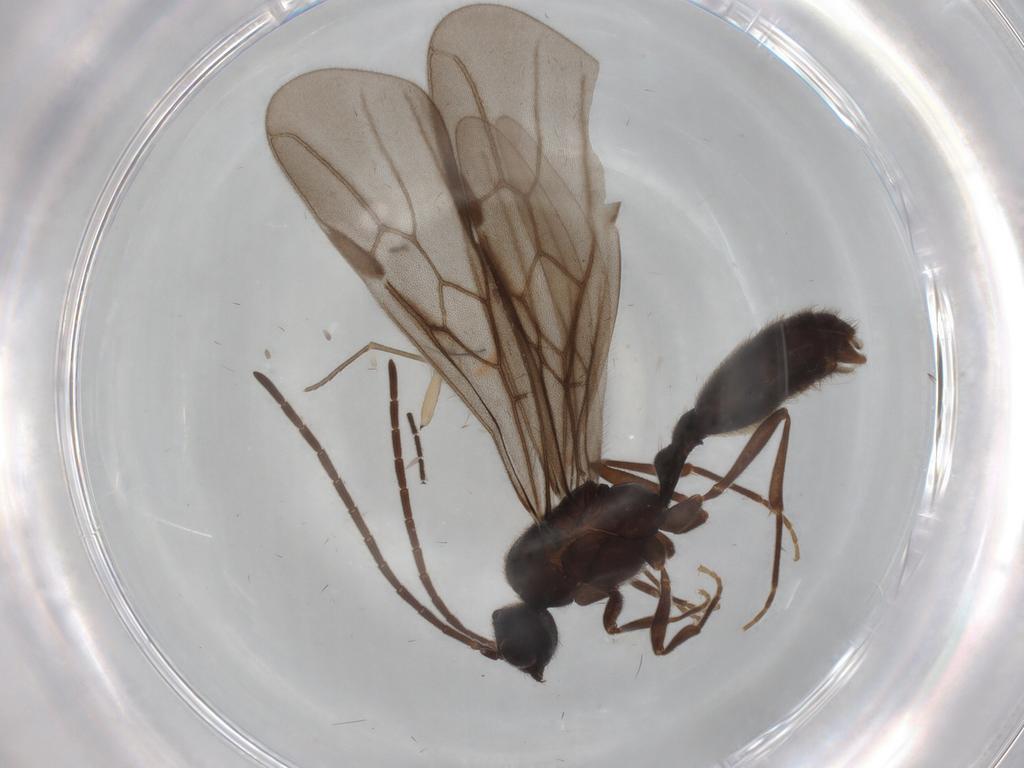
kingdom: Animalia
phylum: Arthropoda
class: Insecta
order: Hymenoptera
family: Formicidae
